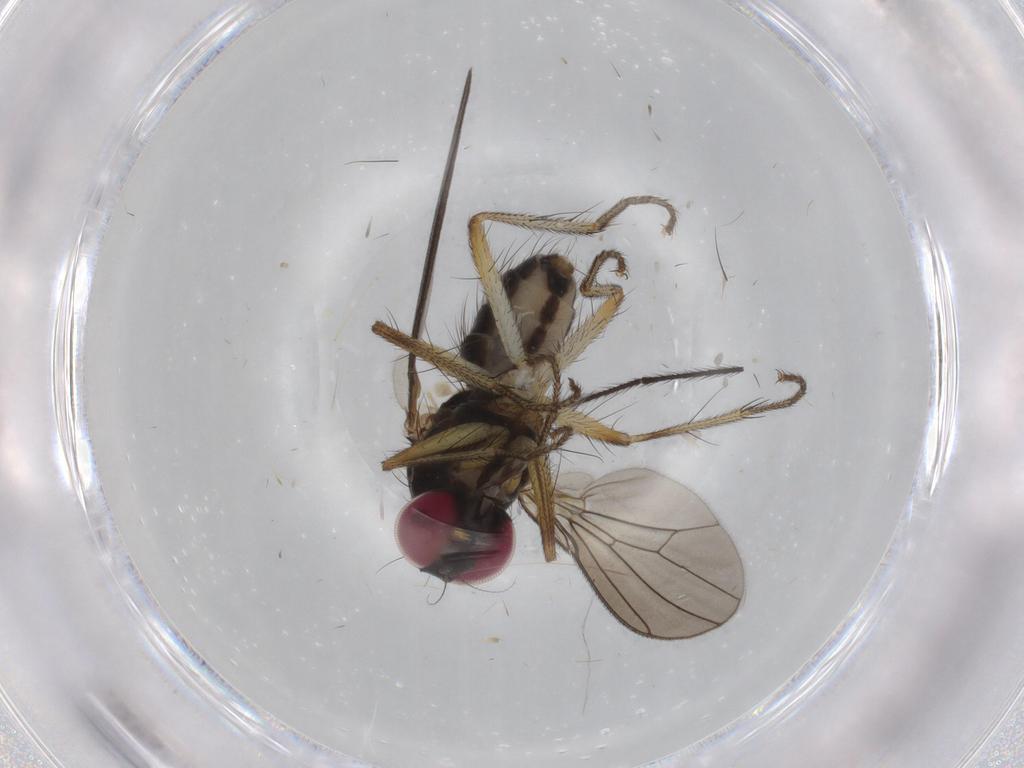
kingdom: Animalia
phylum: Arthropoda
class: Insecta
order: Diptera
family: Anthomyiidae
